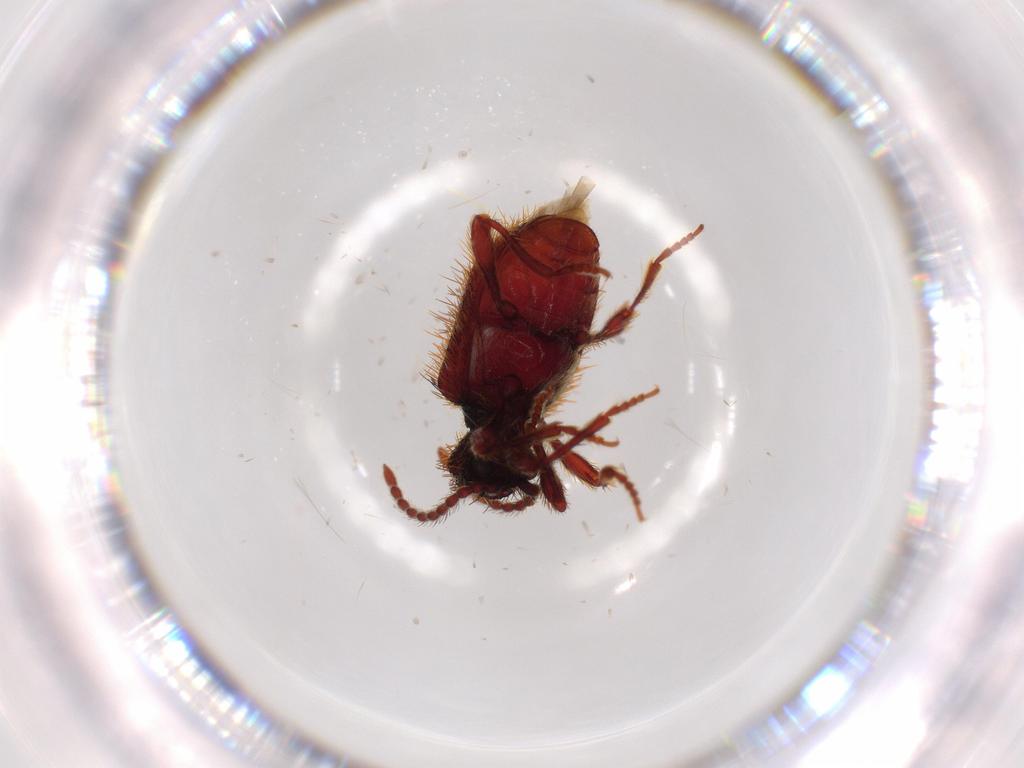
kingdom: Animalia
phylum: Arthropoda
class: Insecta
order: Coleoptera
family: Ptinidae
